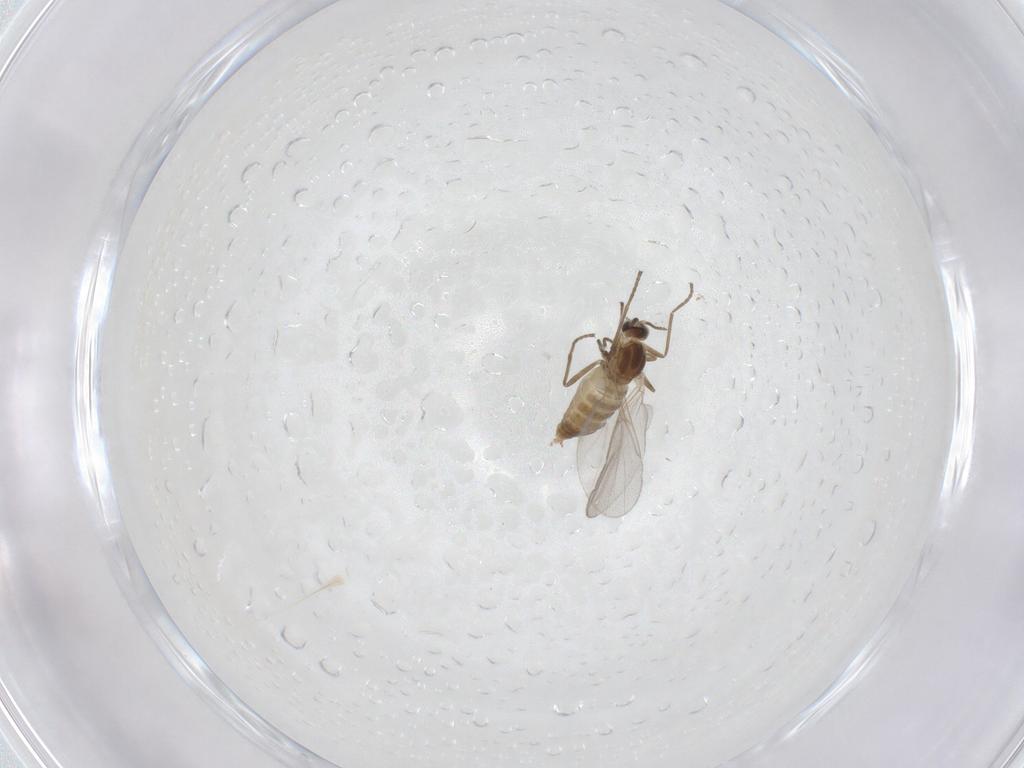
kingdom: Animalia
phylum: Arthropoda
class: Insecta
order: Diptera
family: Cecidomyiidae
